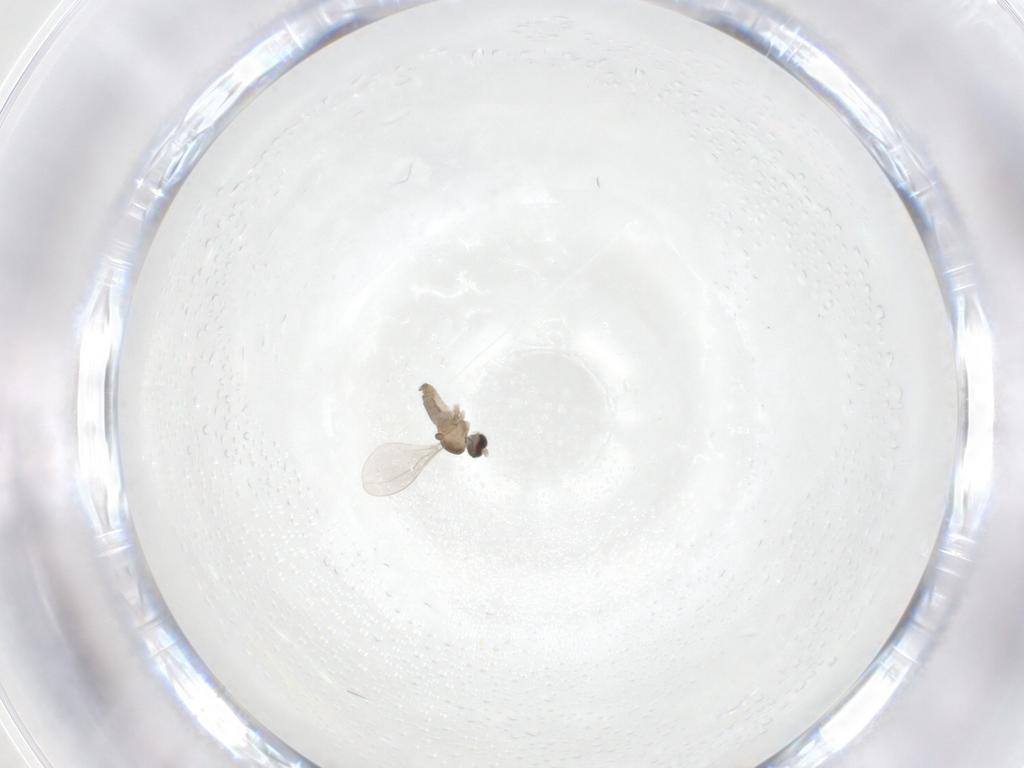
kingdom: Animalia
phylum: Arthropoda
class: Insecta
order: Diptera
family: Cecidomyiidae
